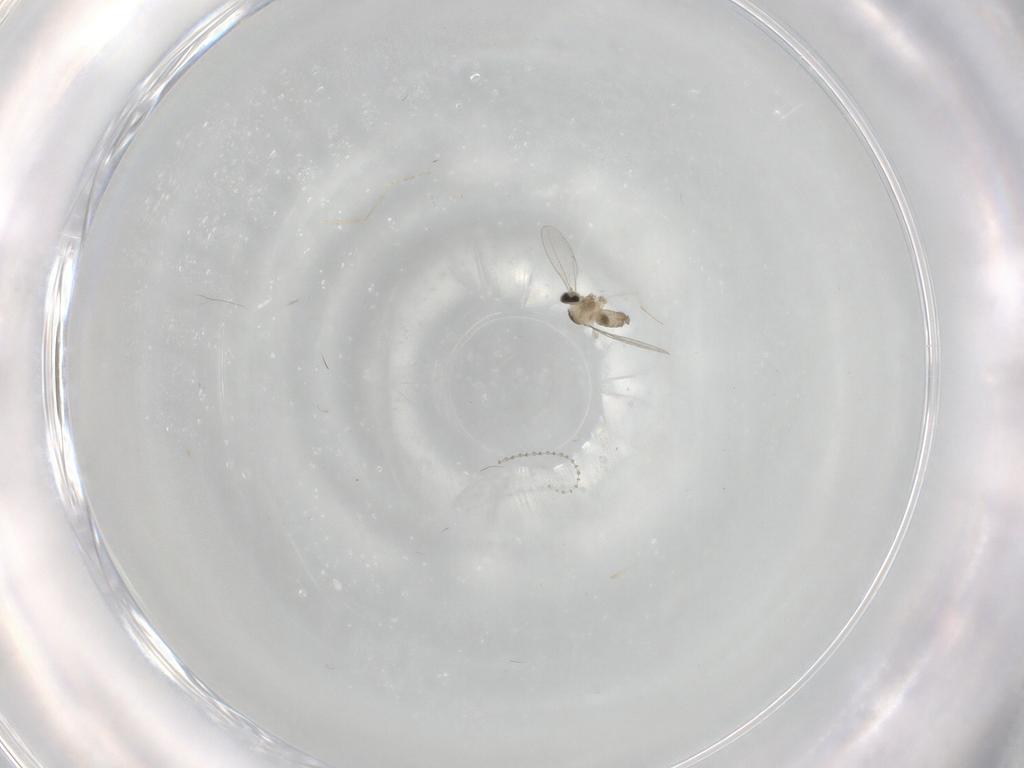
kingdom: Animalia
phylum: Arthropoda
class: Insecta
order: Diptera
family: Cecidomyiidae
